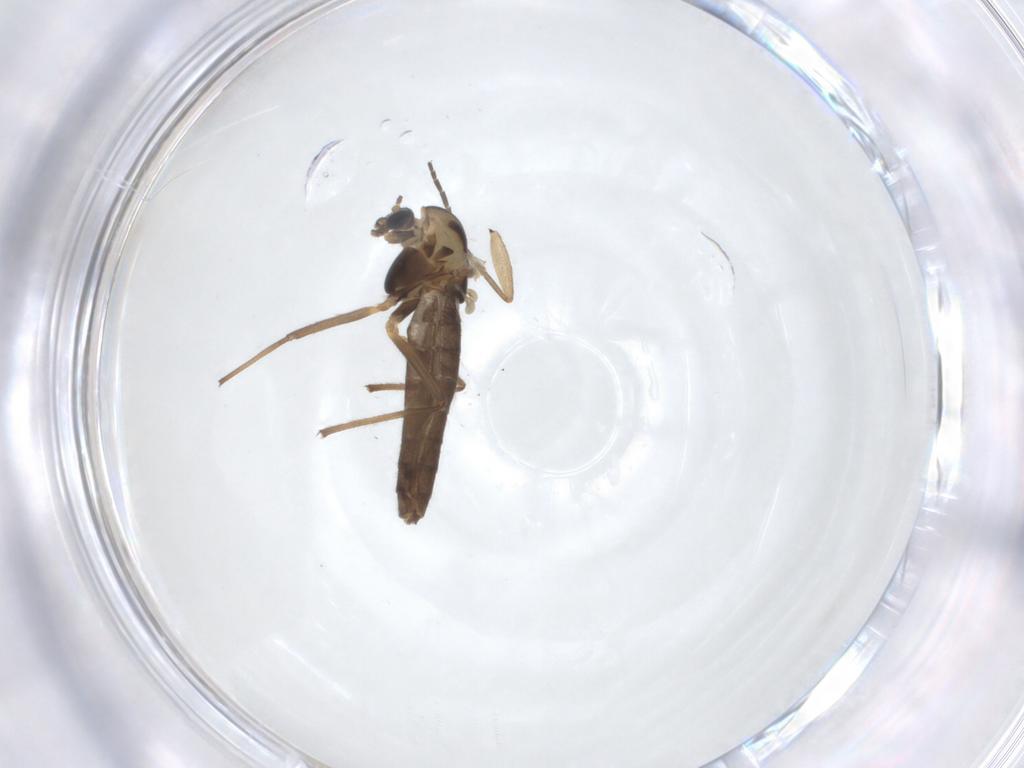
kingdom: Animalia
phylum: Arthropoda
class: Insecta
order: Diptera
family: Chironomidae
